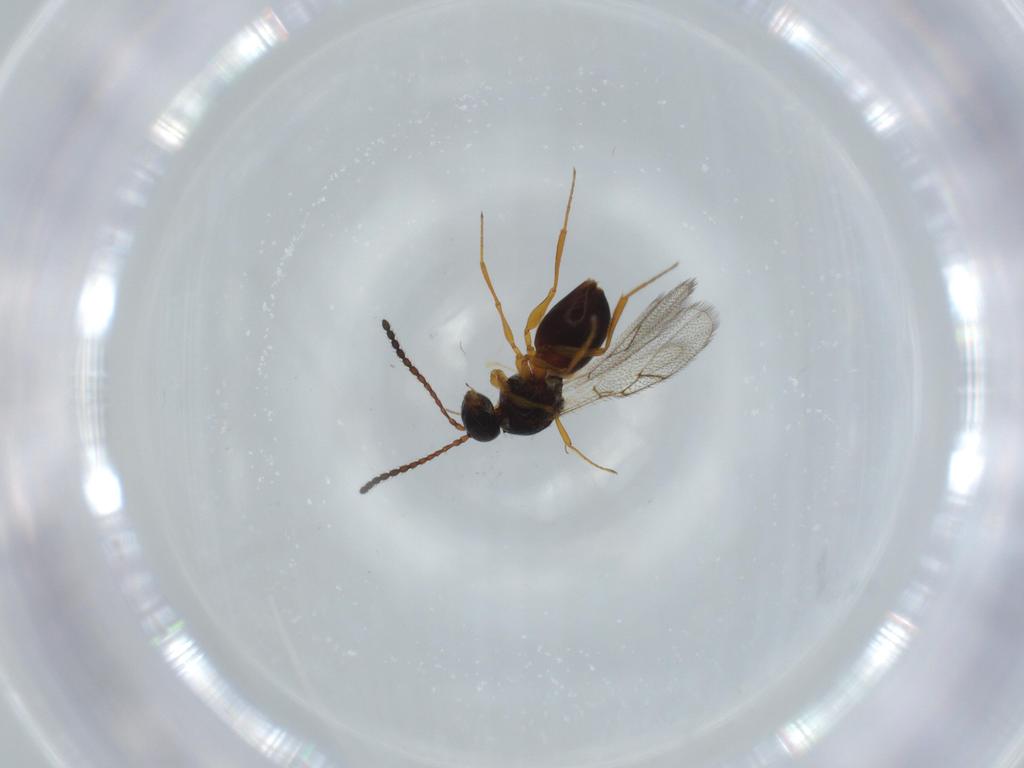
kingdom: Animalia
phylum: Arthropoda
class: Insecta
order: Hymenoptera
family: Figitidae
